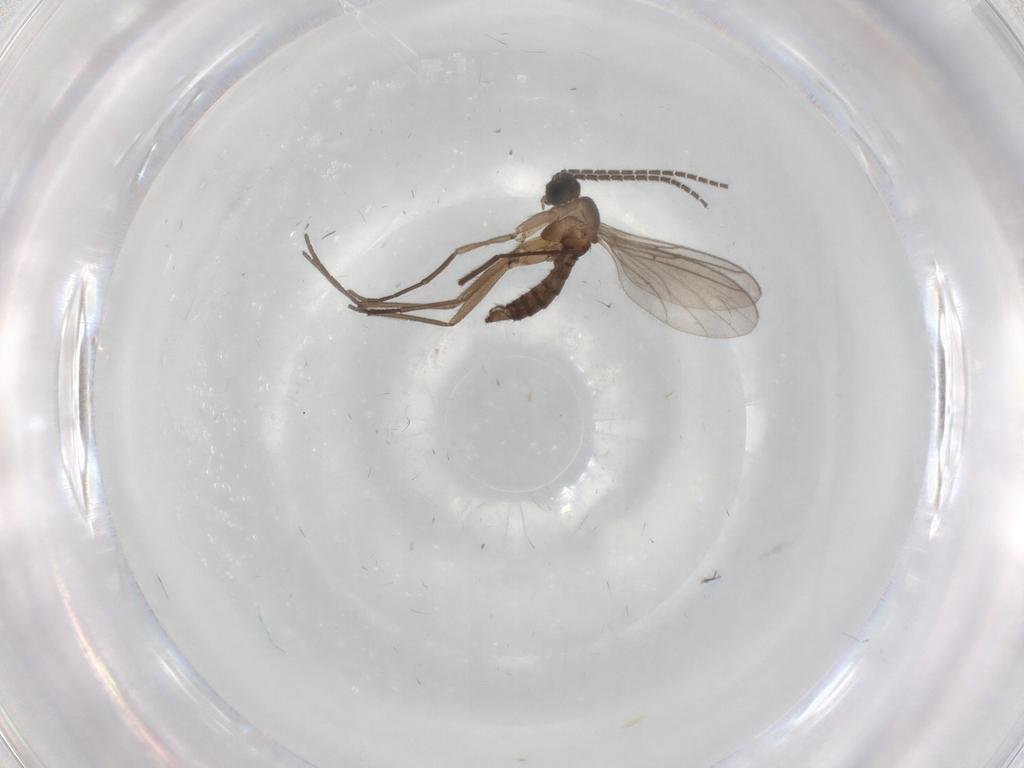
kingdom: Animalia
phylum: Arthropoda
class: Insecta
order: Diptera
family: Sciaridae
